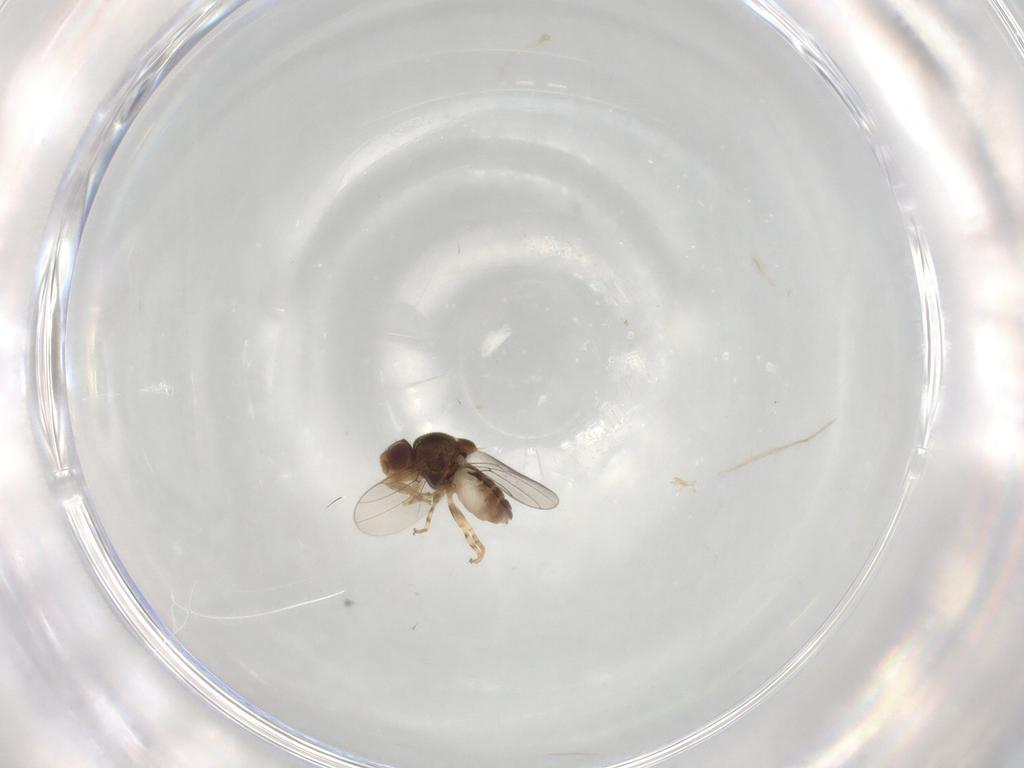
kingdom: Animalia
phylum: Arthropoda
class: Insecta
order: Diptera
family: Chloropidae
